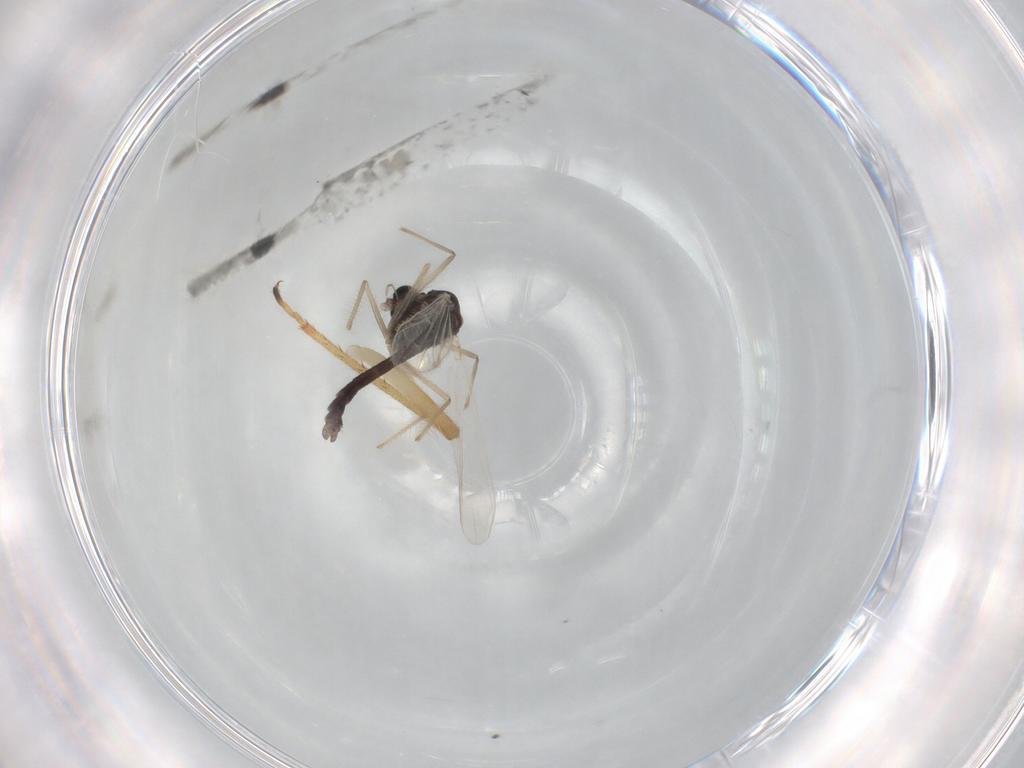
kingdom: Animalia
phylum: Arthropoda
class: Insecta
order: Diptera
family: Chironomidae
